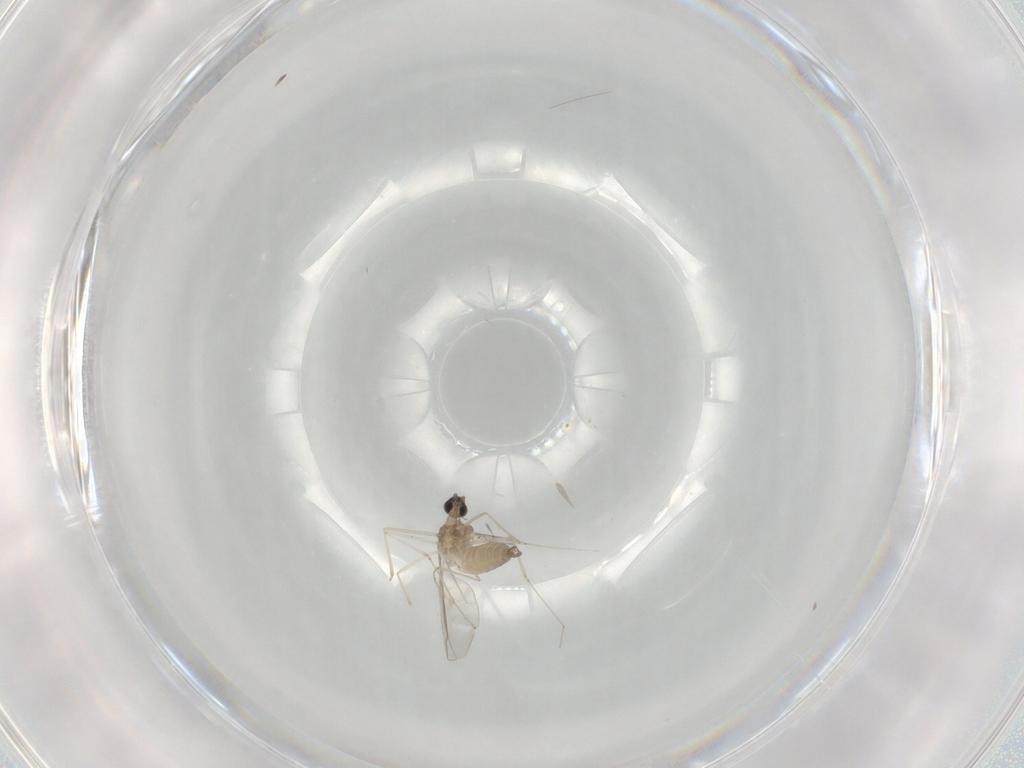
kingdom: Animalia
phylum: Arthropoda
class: Insecta
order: Diptera
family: Cecidomyiidae
